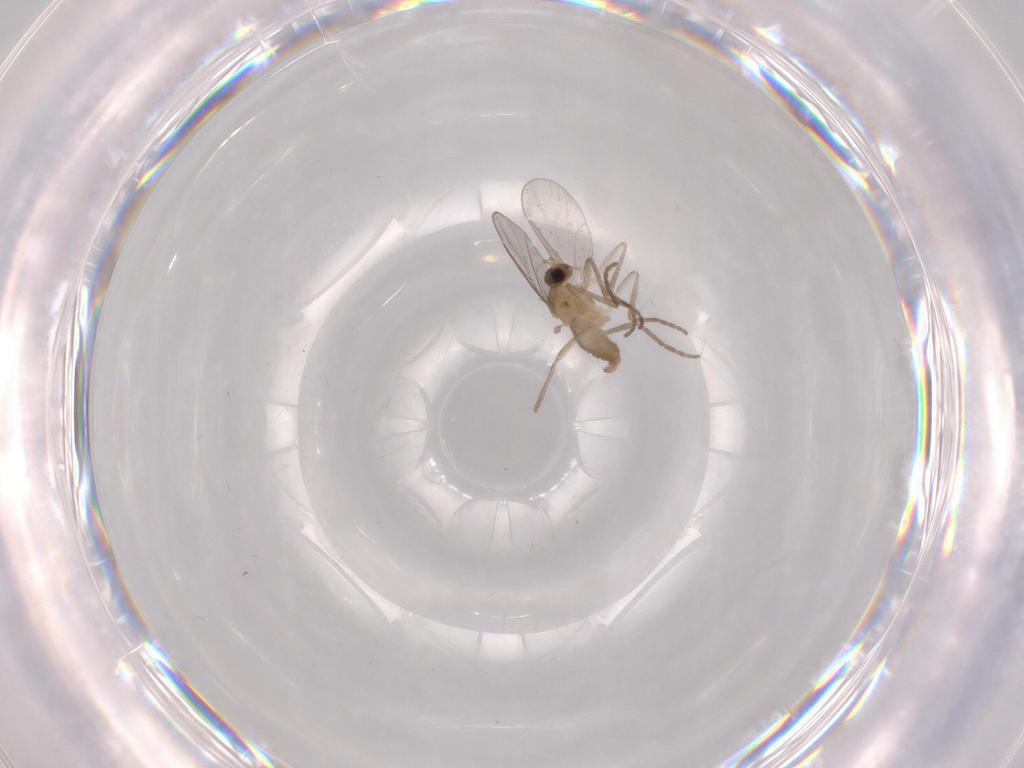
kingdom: Animalia
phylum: Arthropoda
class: Insecta
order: Diptera
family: Cecidomyiidae
